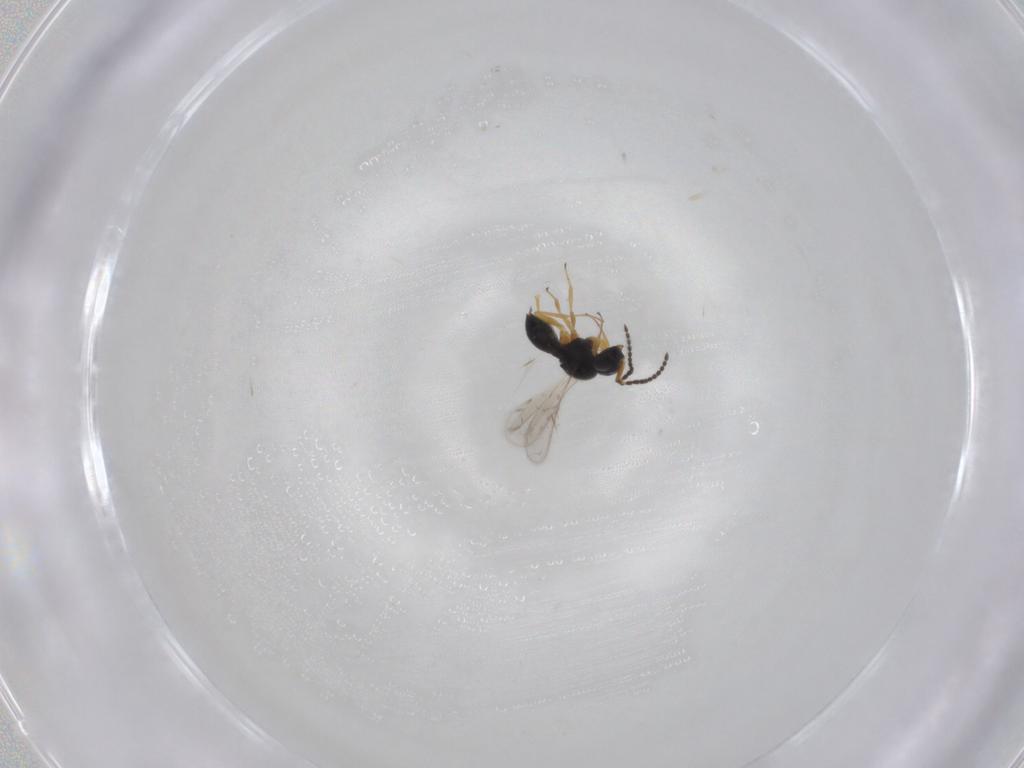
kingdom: Animalia
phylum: Arthropoda
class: Insecta
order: Hymenoptera
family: Scelionidae
